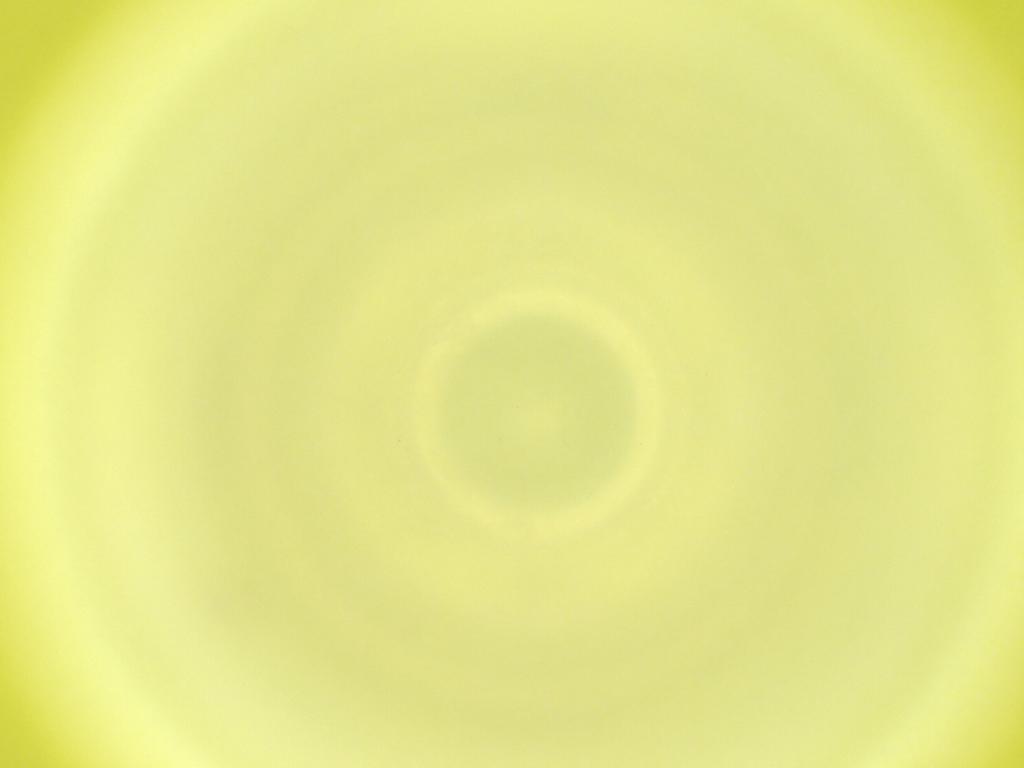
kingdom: Animalia
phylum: Arthropoda
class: Insecta
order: Diptera
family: Cecidomyiidae
